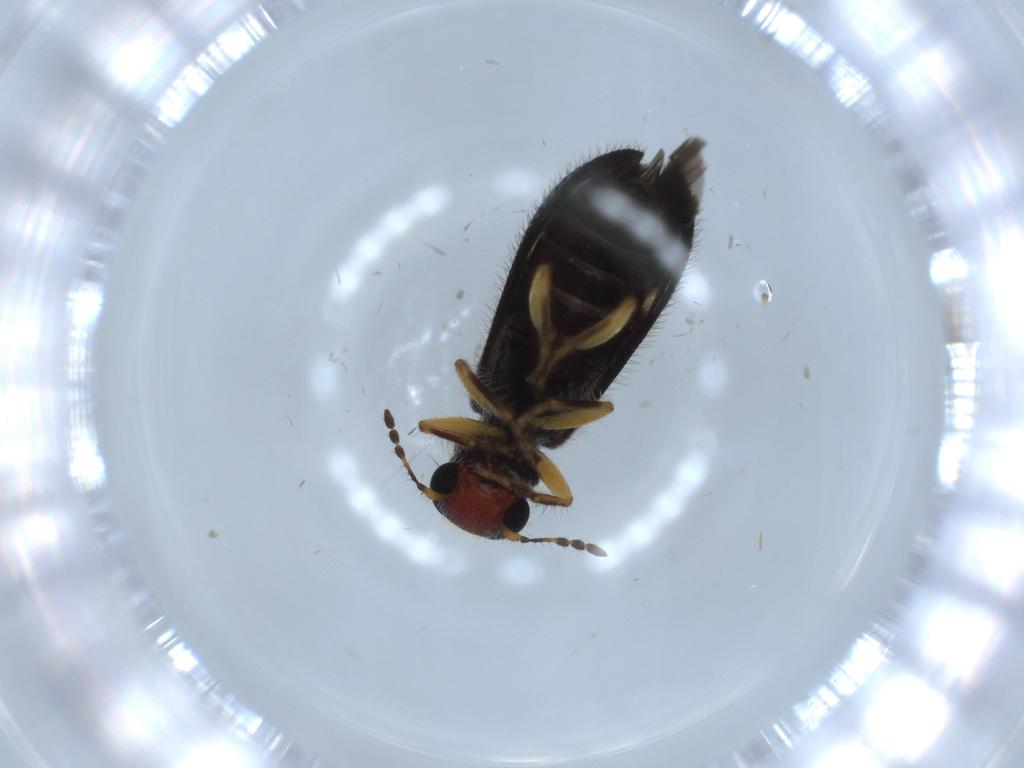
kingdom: Animalia
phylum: Arthropoda
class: Insecta
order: Coleoptera
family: Cleridae
